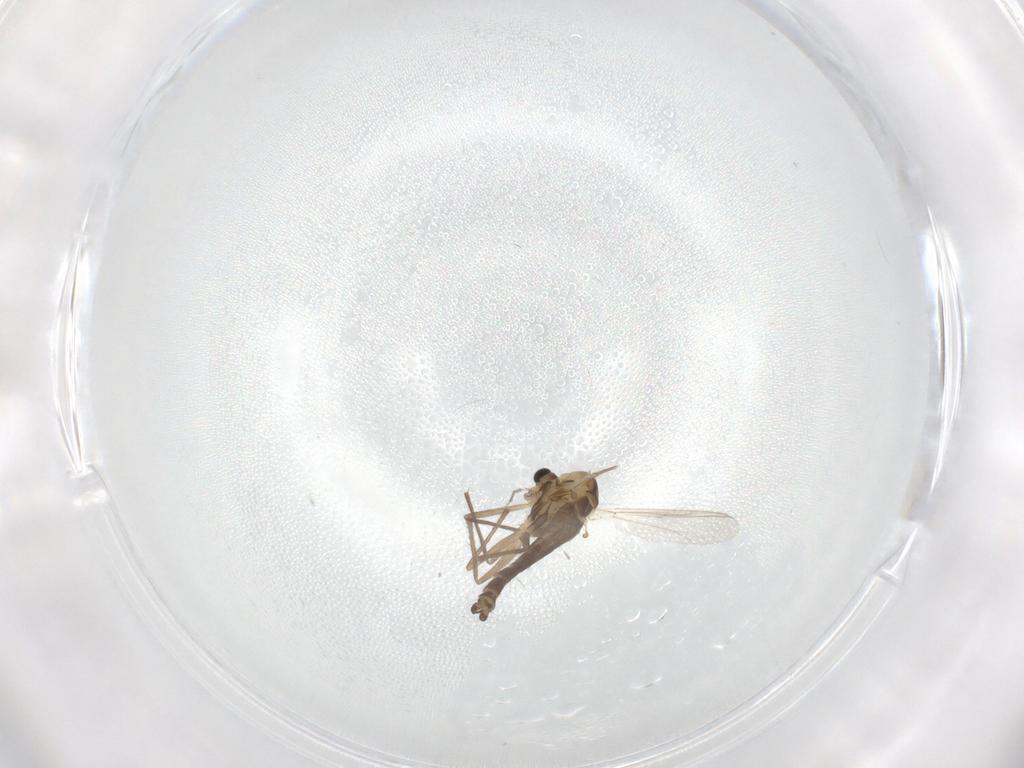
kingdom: Animalia
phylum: Arthropoda
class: Insecta
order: Diptera
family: Chironomidae
